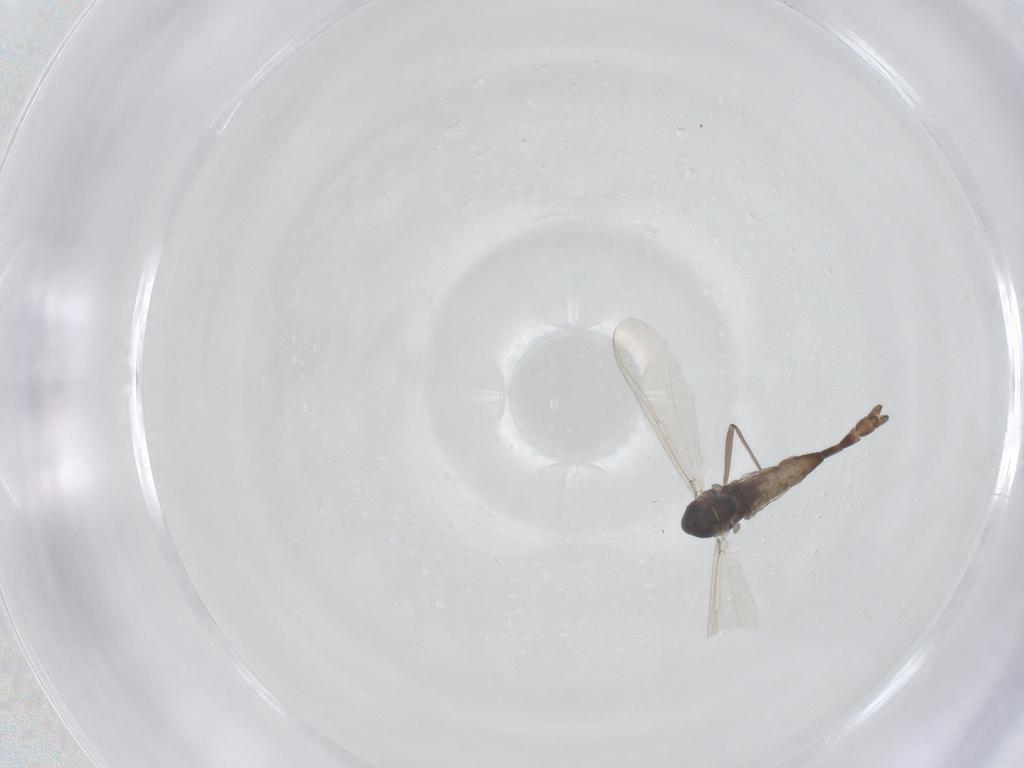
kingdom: Animalia
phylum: Arthropoda
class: Insecta
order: Diptera
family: Chironomidae
